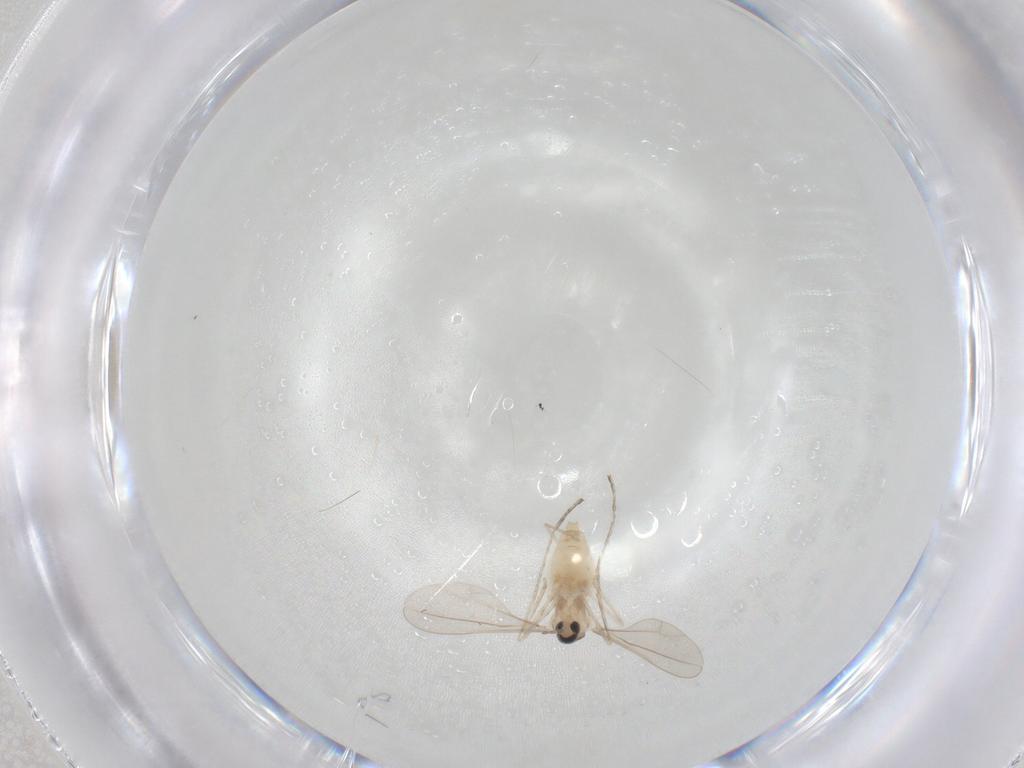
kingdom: Animalia
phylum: Arthropoda
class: Insecta
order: Diptera
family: Cecidomyiidae
